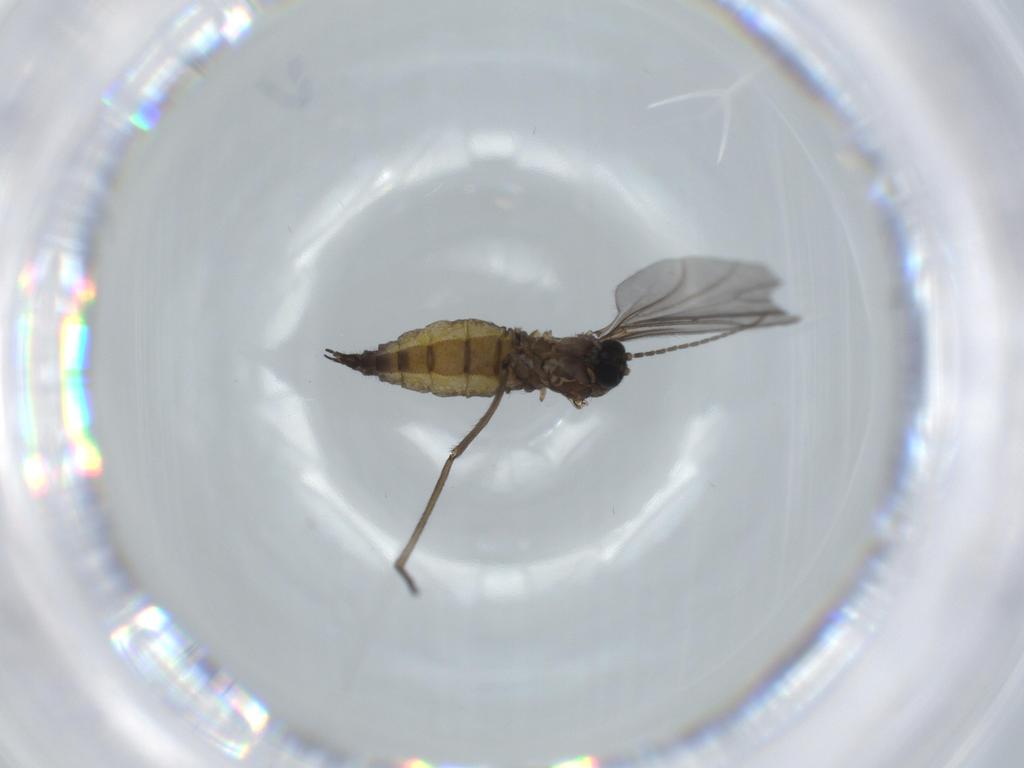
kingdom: Animalia
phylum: Arthropoda
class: Insecta
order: Diptera
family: Sciaridae
